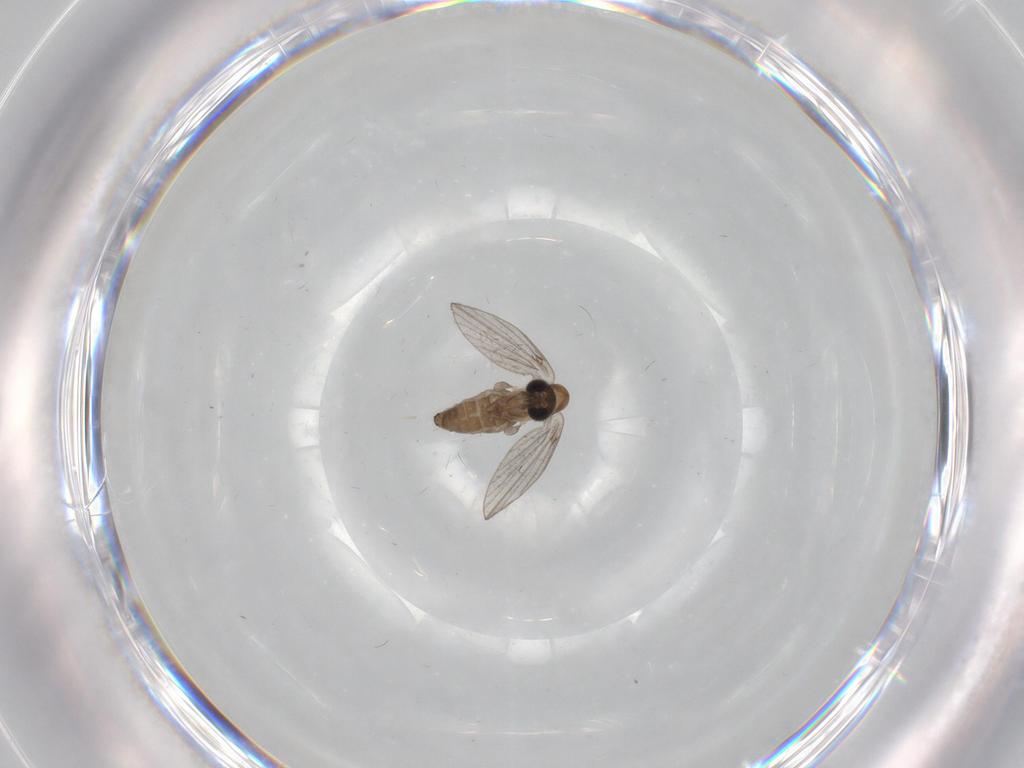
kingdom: Animalia
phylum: Arthropoda
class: Insecta
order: Diptera
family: Psychodidae
